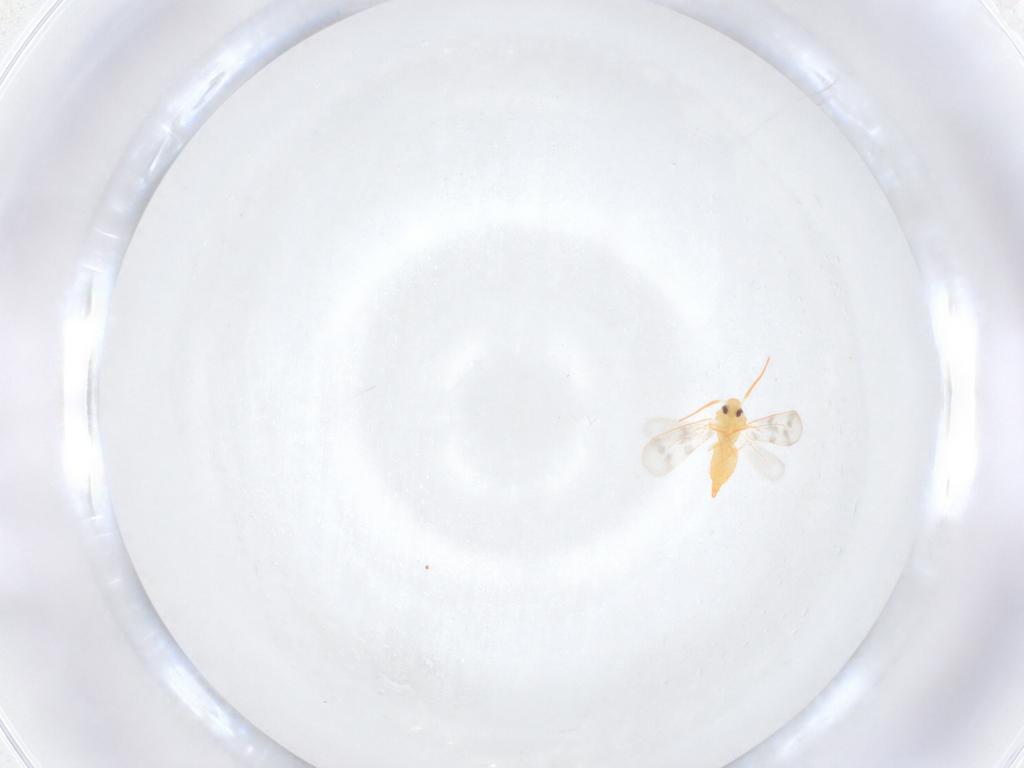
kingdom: Animalia
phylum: Arthropoda
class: Insecta
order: Hemiptera
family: Aleyrodidae
